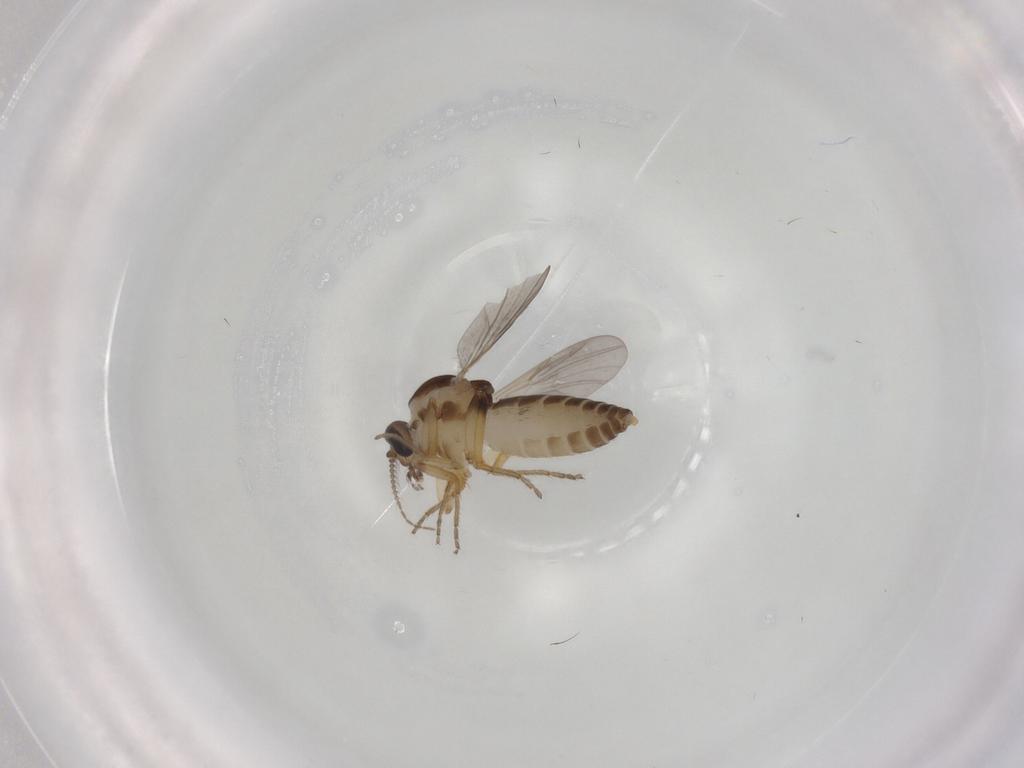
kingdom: Animalia
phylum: Arthropoda
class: Insecta
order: Diptera
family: Ceratopogonidae
